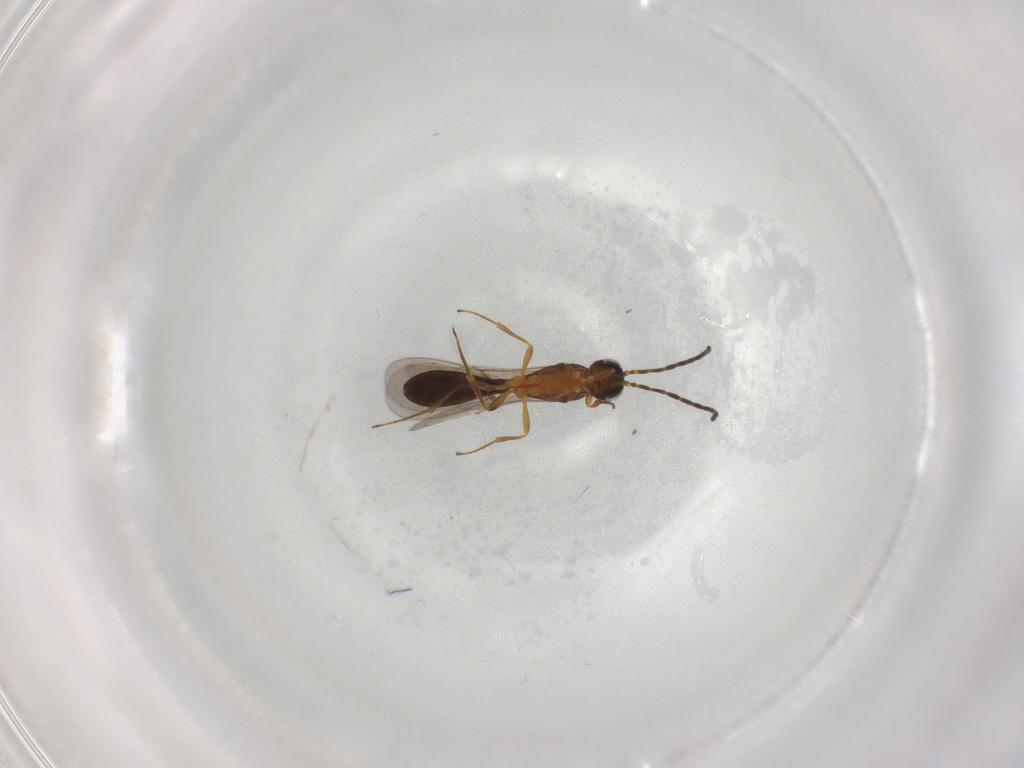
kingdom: Animalia
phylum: Arthropoda
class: Insecta
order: Hymenoptera
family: Scelionidae
